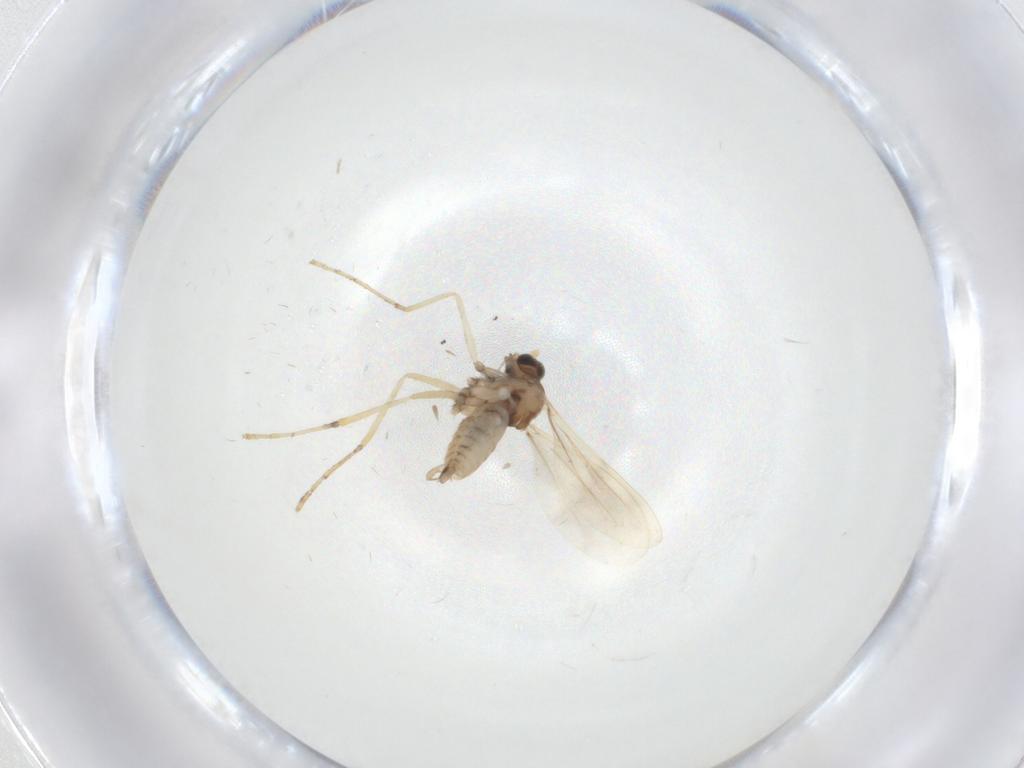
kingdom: Animalia
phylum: Arthropoda
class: Insecta
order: Diptera
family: Cecidomyiidae
